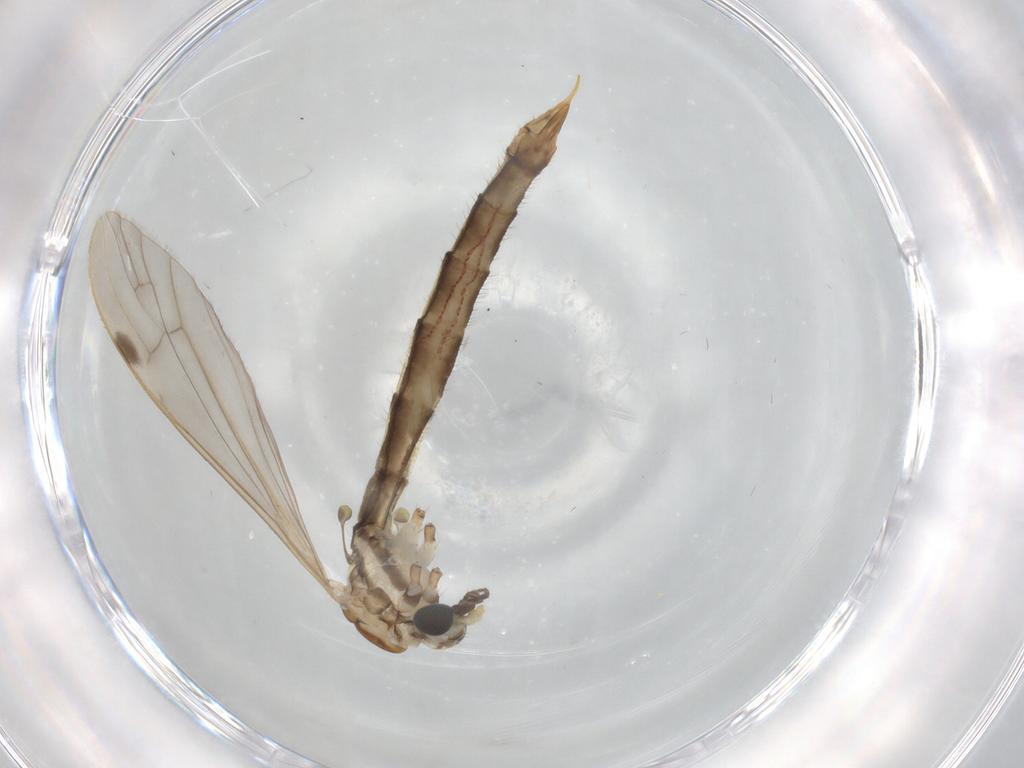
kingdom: Animalia
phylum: Arthropoda
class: Insecta
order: Diptera
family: Limoniidae
